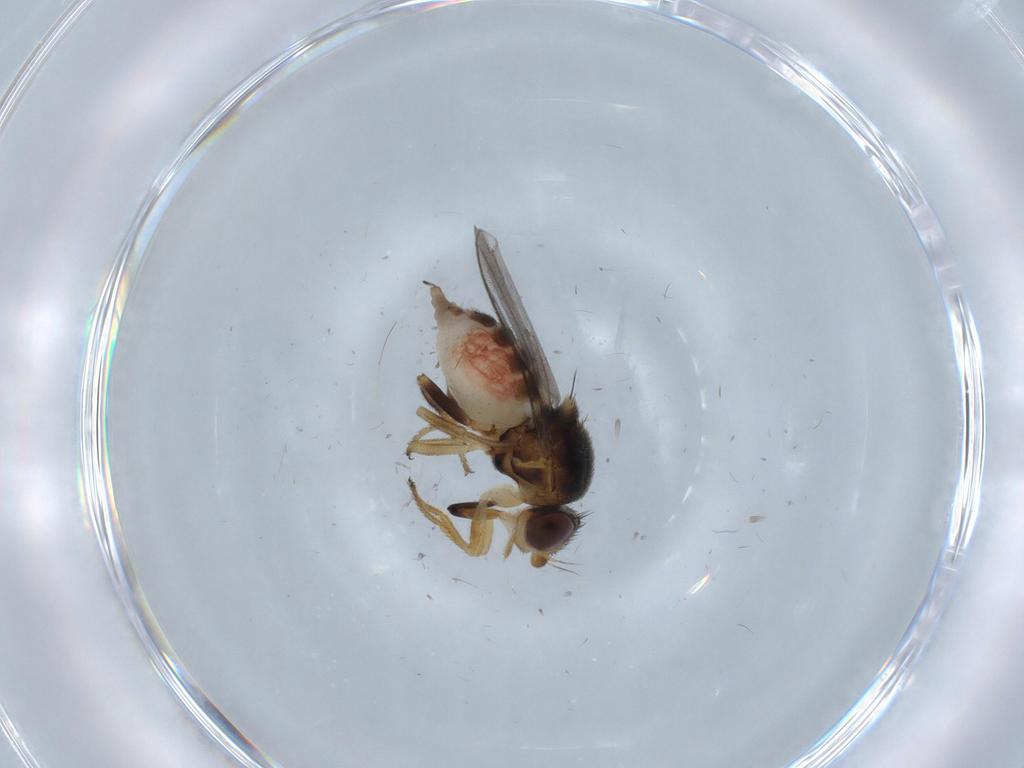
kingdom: Animalia
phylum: Arthropoda
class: Insecta
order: Diptera
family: Chloropidae
